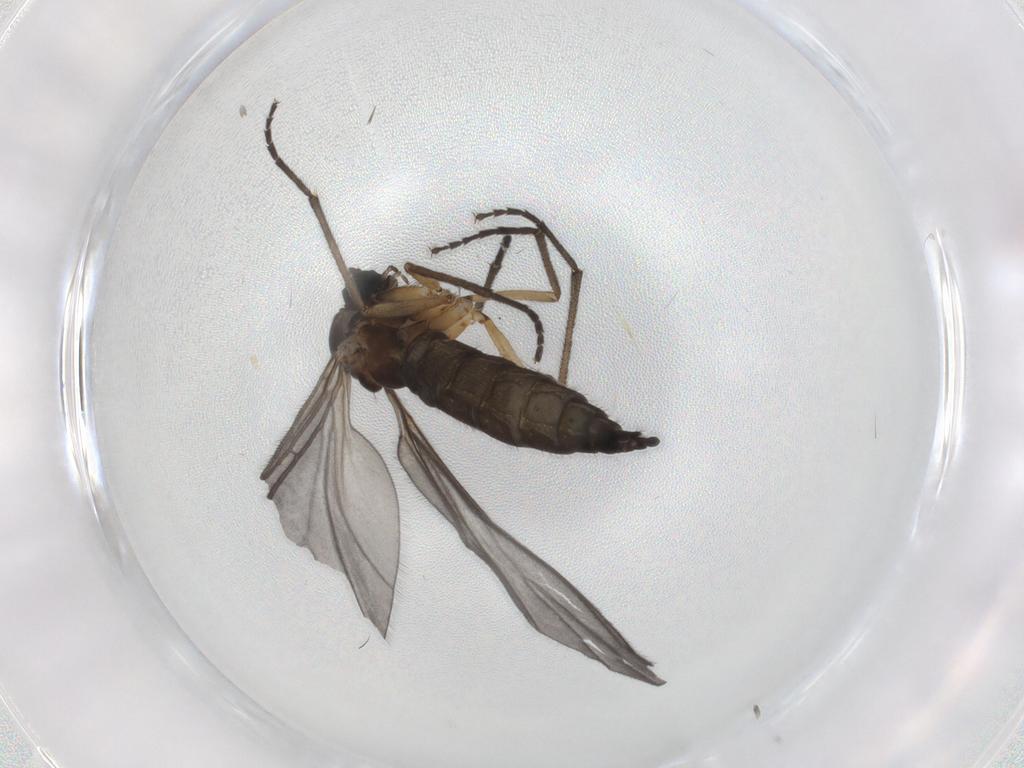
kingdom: Animalia
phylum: Arthropoda
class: Insecta
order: Diptera
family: Sciaridae
